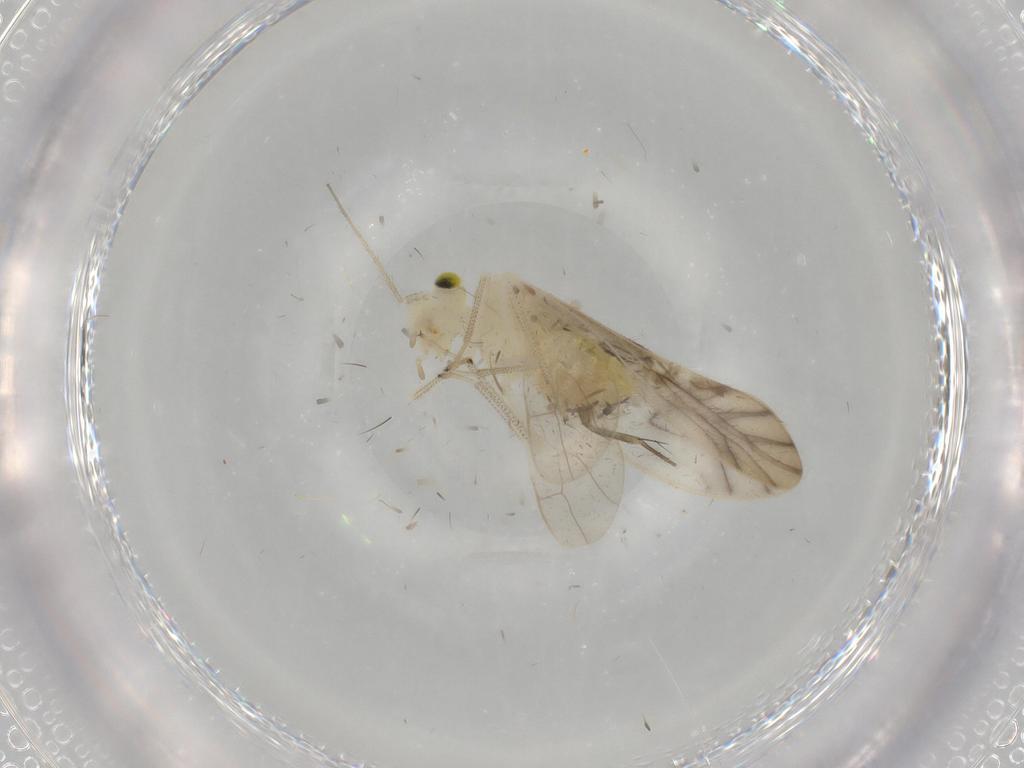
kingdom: Animalia
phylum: Arthropoda
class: Insecta
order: Psocodea
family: Caeciliusidae
